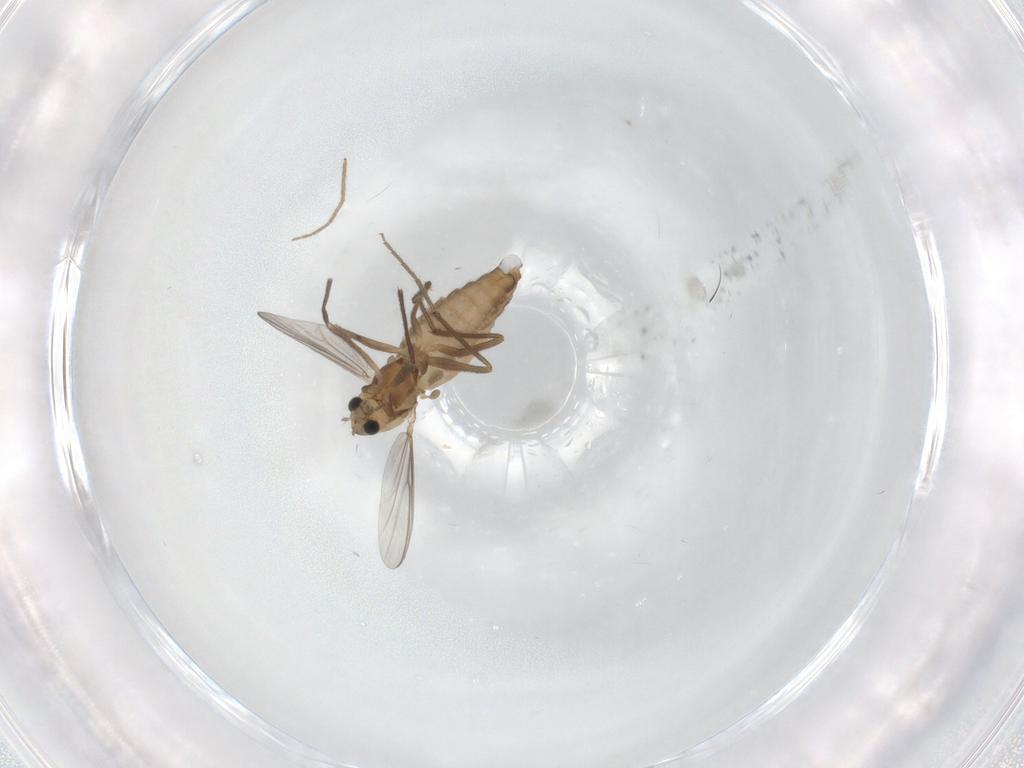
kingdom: Animalia
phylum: Arthropoda
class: Insecta
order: Diptera
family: Chironomidae
